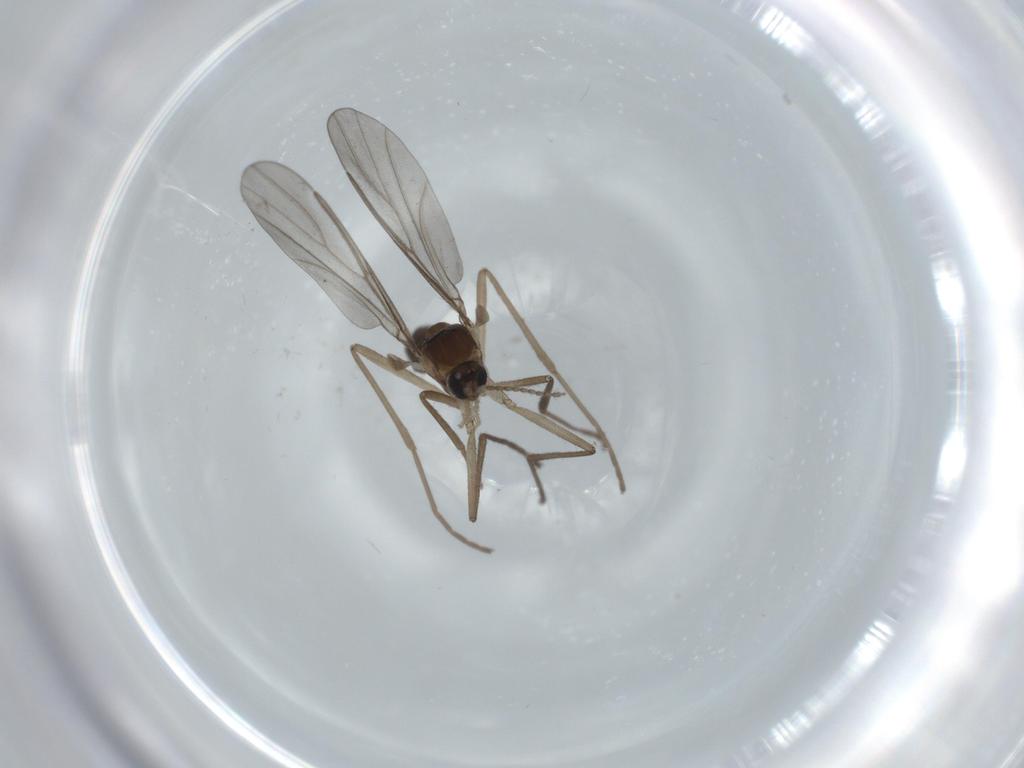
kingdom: Animalia
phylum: Arthropoda
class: Insecta
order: Diptera
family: Cecidomyiidae
